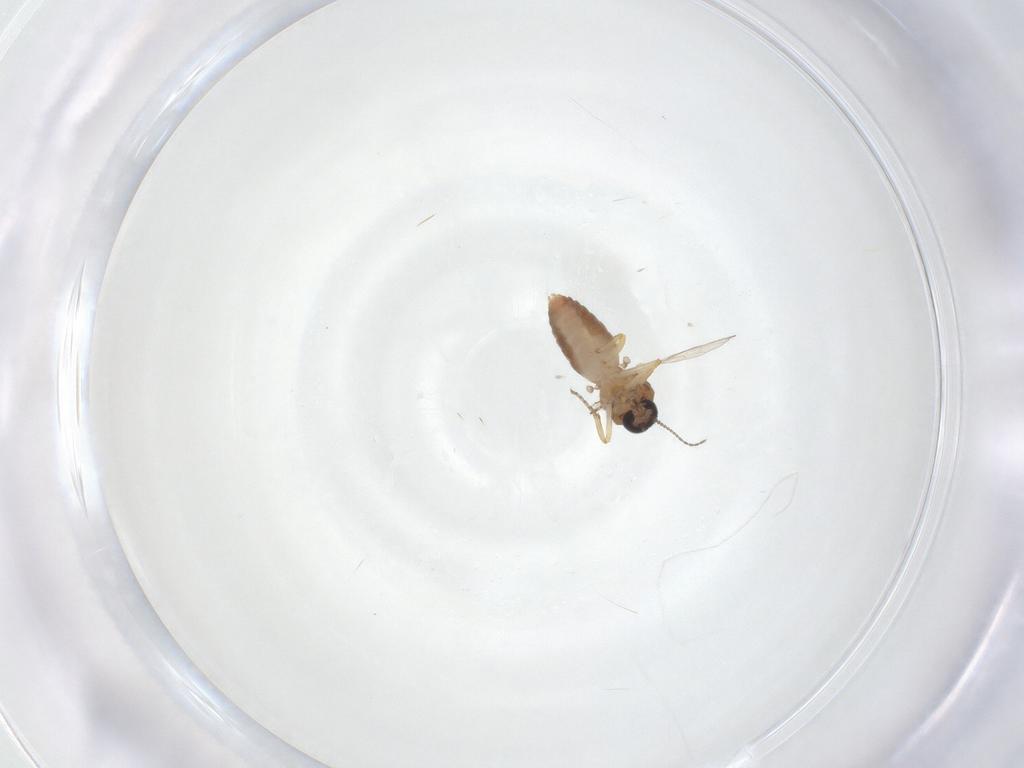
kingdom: Animalia
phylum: Arthropoda
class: Insecta
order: Diptera
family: Ceratopogonidae
